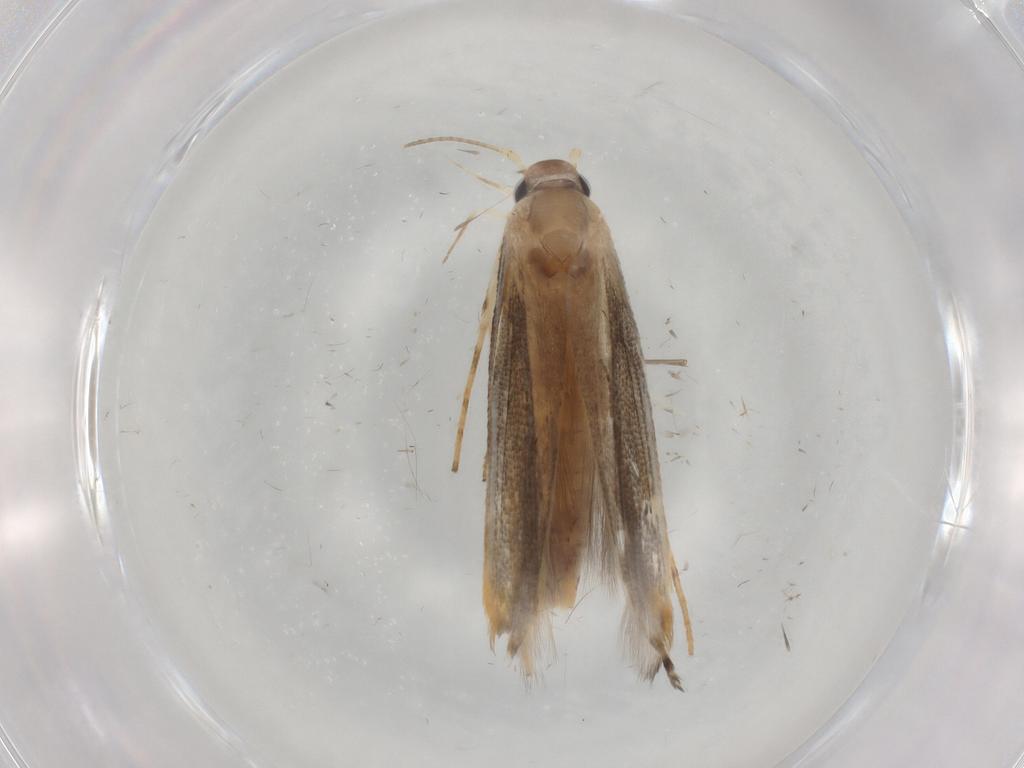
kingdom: Animalia
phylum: Arthropoda
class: Insecta
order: Lepidoptera
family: Gelechiidae
